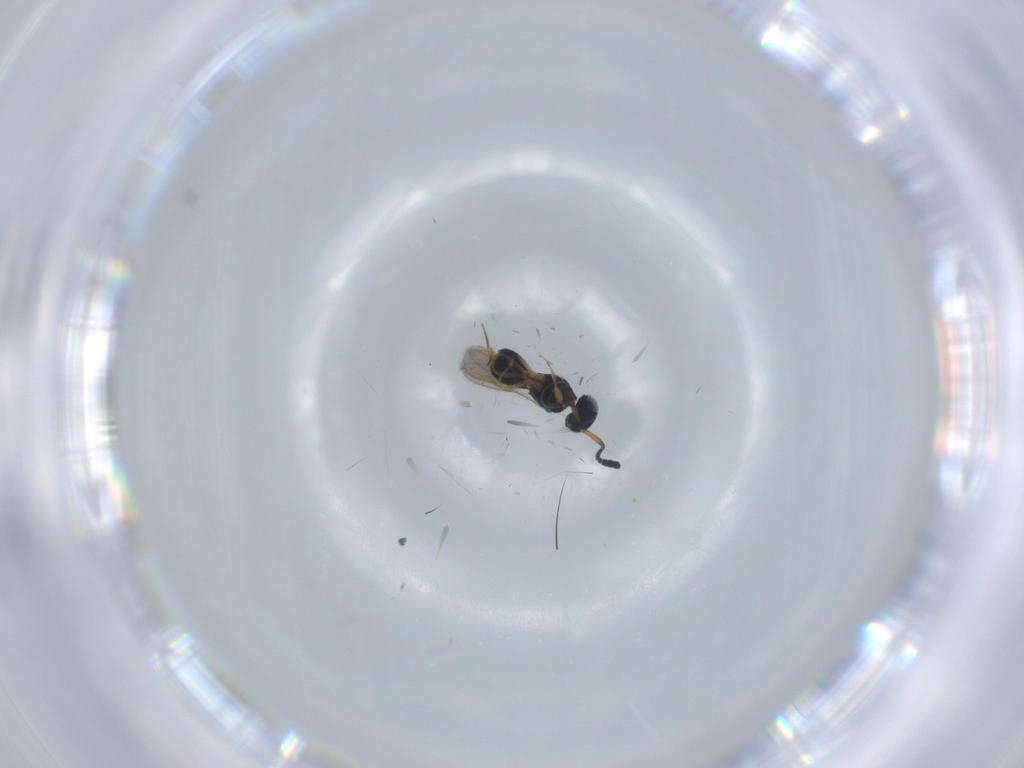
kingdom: Animalia
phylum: Arthropoda
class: Insecta
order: Hymenoptera
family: Scelionidae
